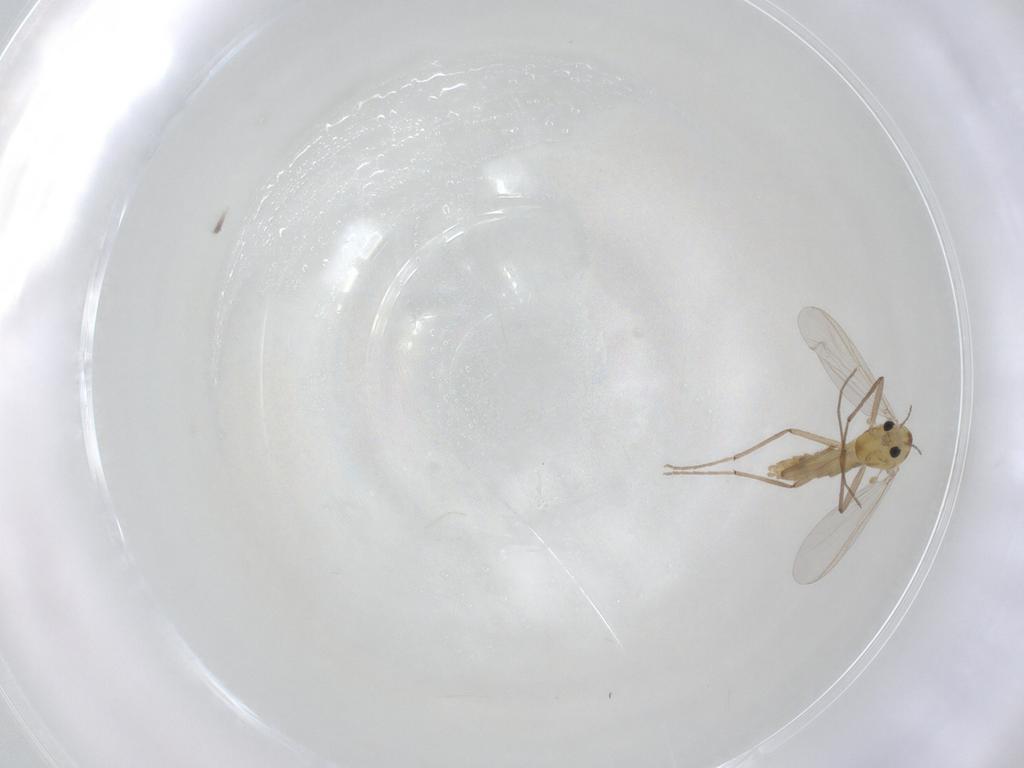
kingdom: Animalia
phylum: Arthropoda
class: Insecta
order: Diptera
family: Chironomidae
